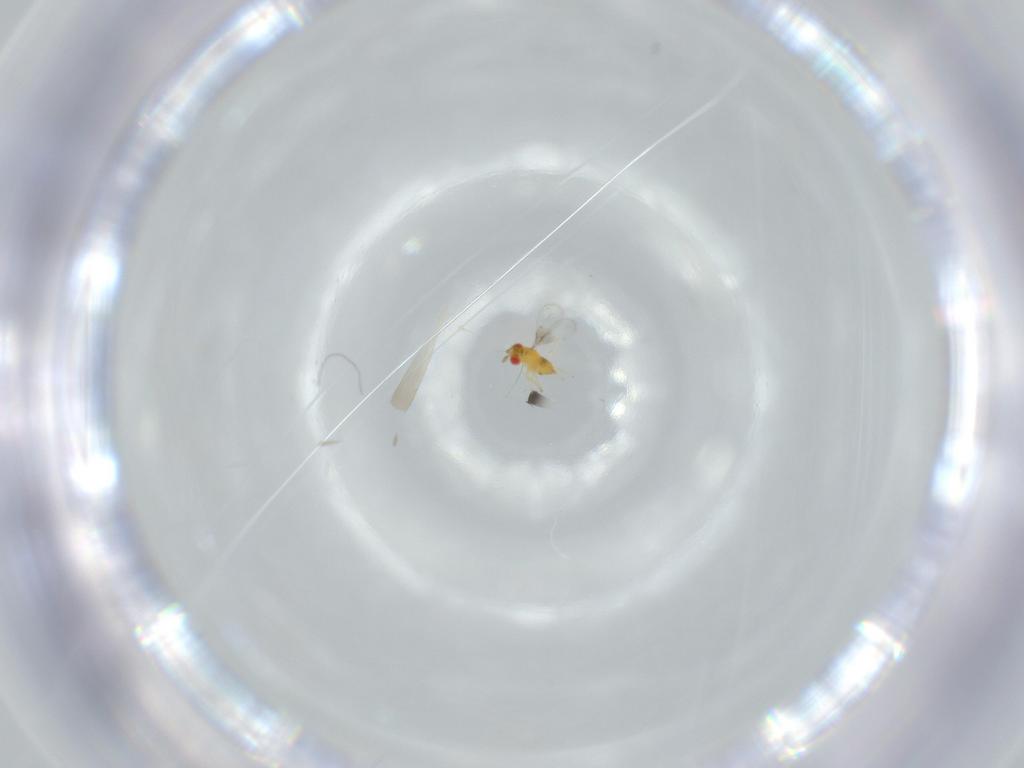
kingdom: Animalia
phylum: Arthropoda
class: Insecta
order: Hymenoptera
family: Trichogrammatidae
